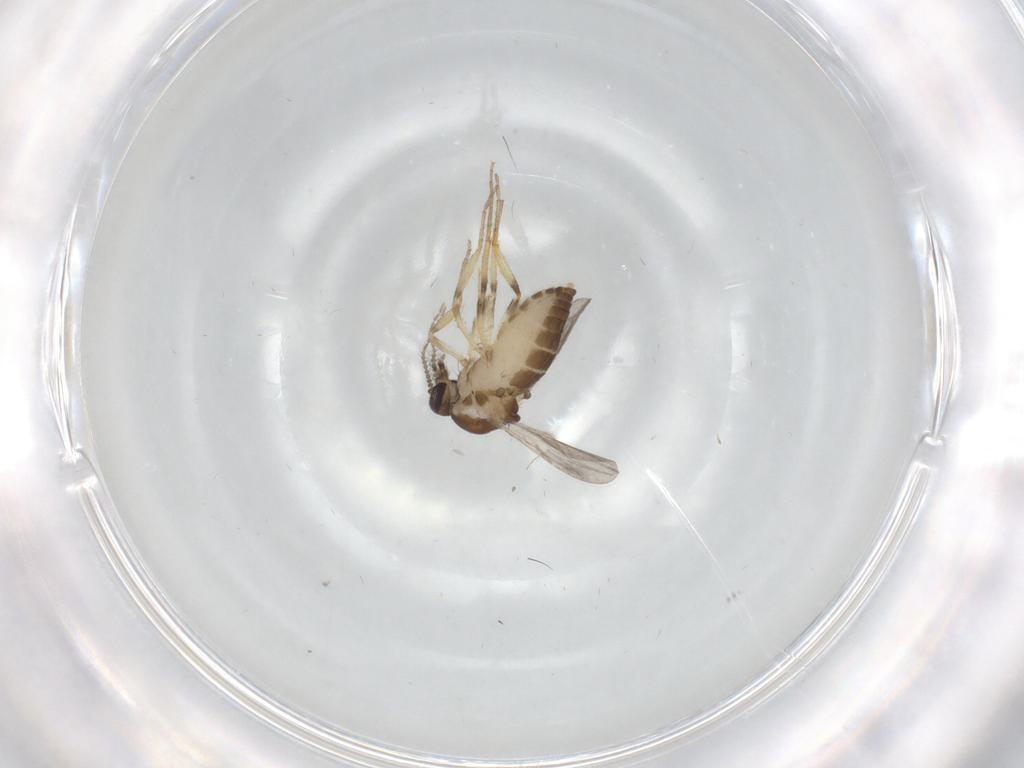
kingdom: Animalia
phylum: Arthropoda
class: Insecta
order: Diptera
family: Ceratopogonidae
